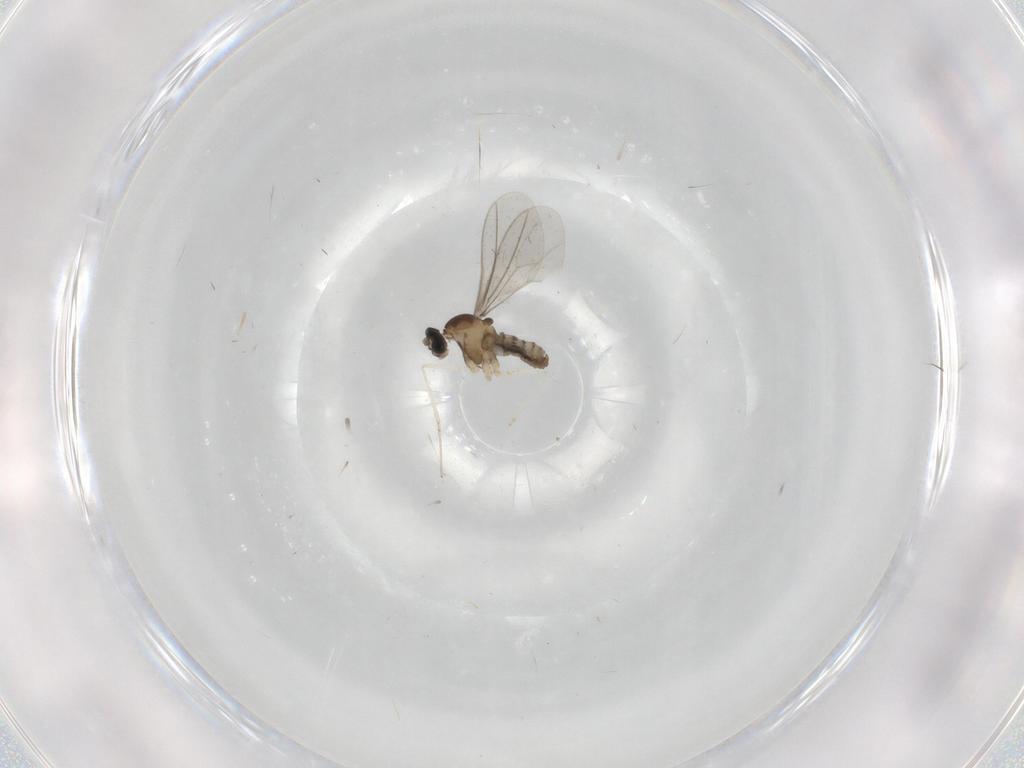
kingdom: Animalia
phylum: Arthropoda
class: Insecta
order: Diptera
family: Cecidomyiidae
